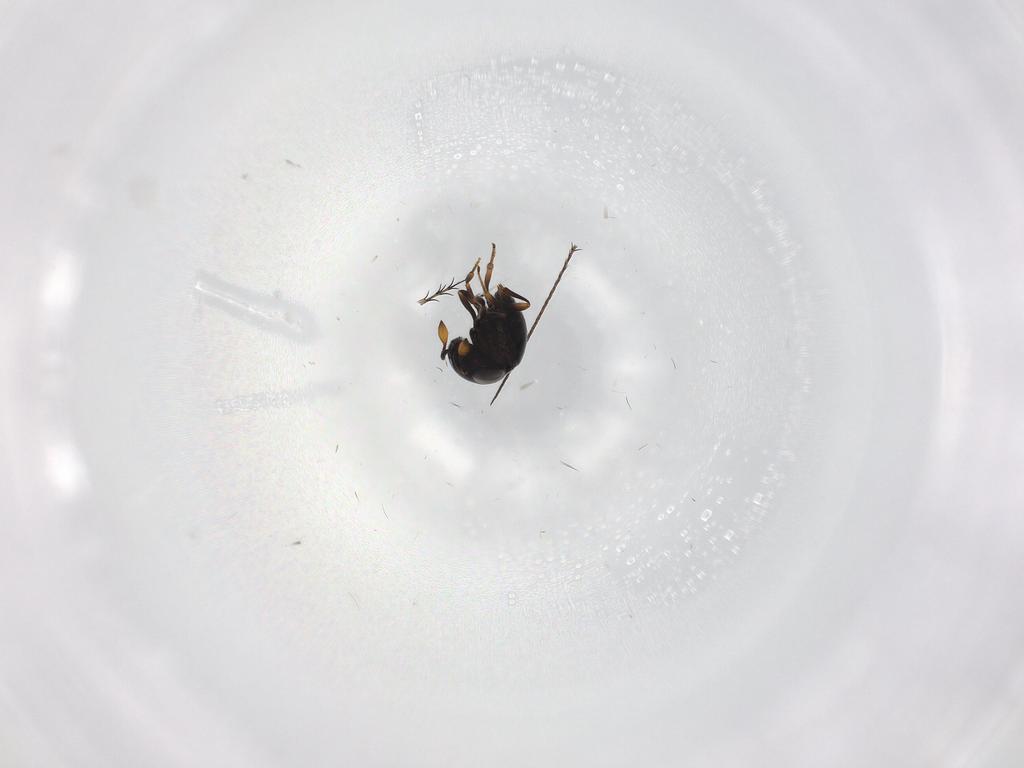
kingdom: Animalia
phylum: Arthropoda
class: Insecta
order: Hymenoptera
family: Scelionidae
